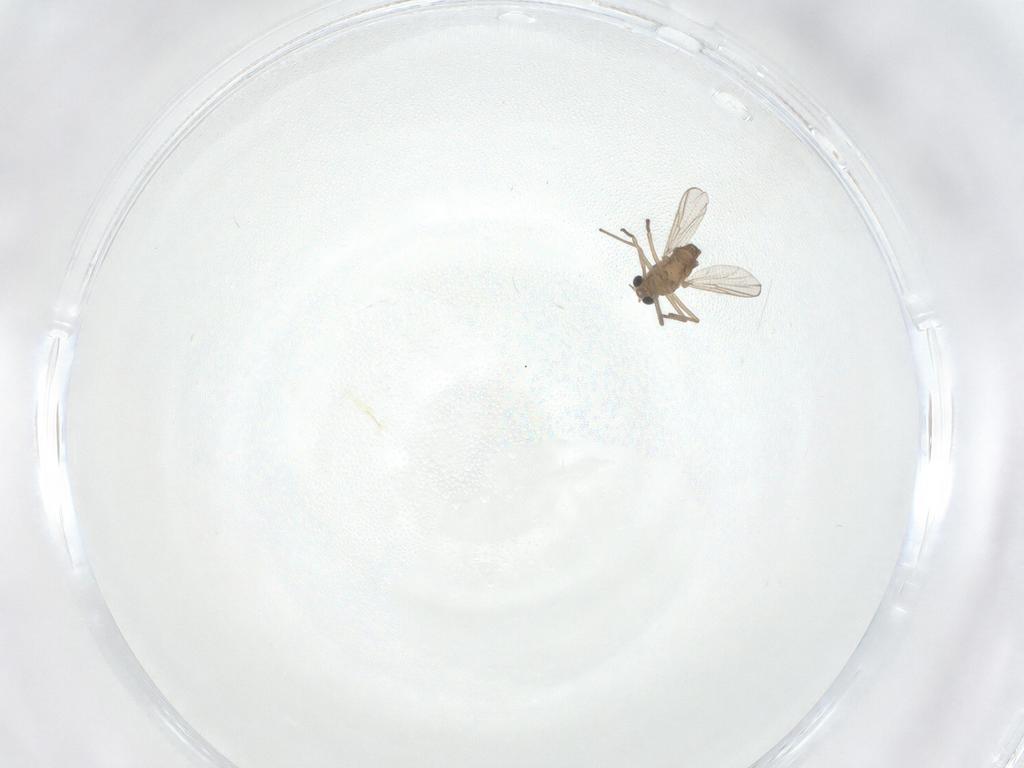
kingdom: Animalia
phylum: Arthropoda
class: Insecta
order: Diptera
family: Chironomidae
